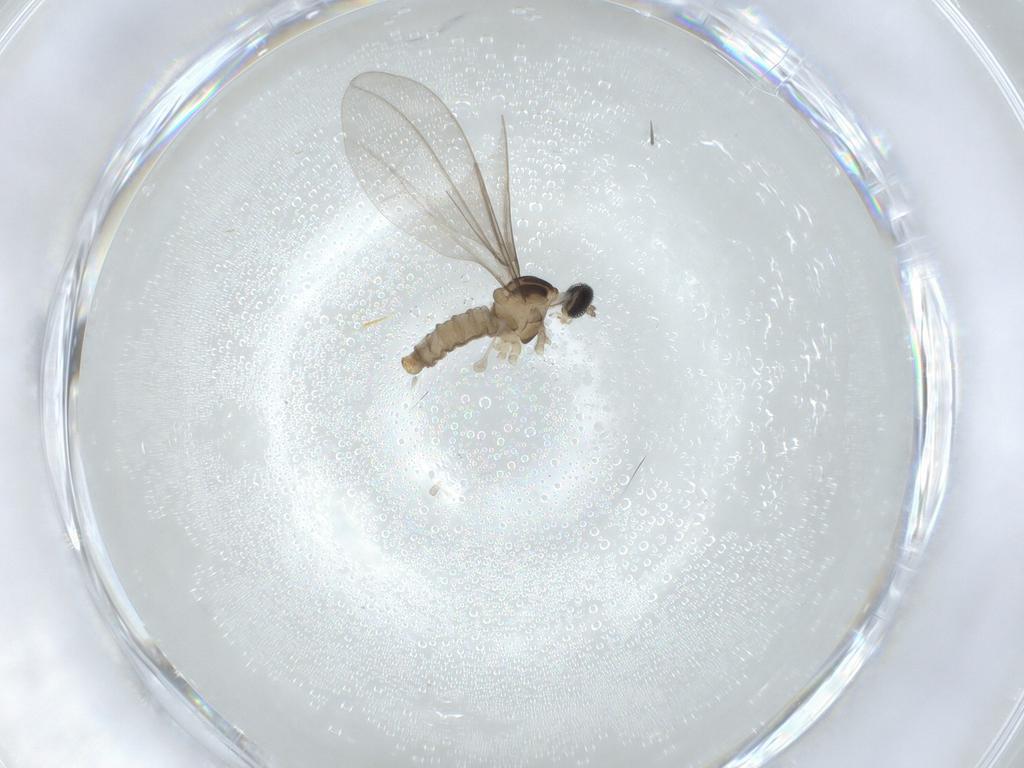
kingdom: Animalia
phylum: Arthropoda
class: Insecta
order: Diptera
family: Cecidomyiidae
